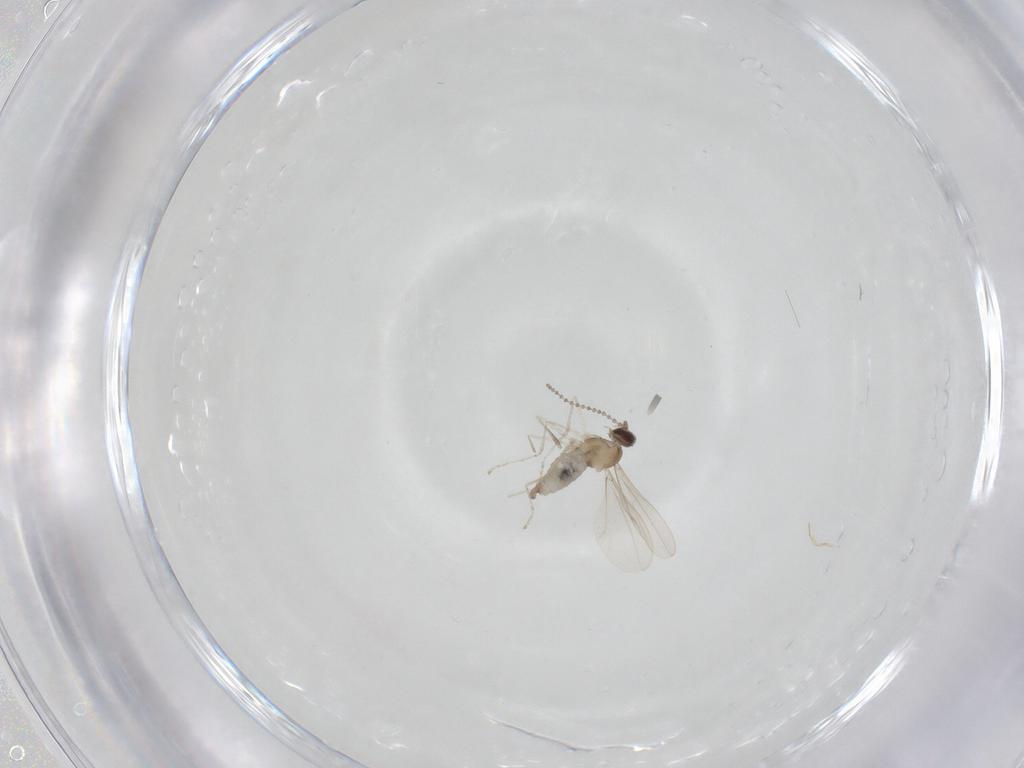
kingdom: Animalia
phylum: Arthropoda
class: Insecta
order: Diptera
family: Cecidomyiidae
